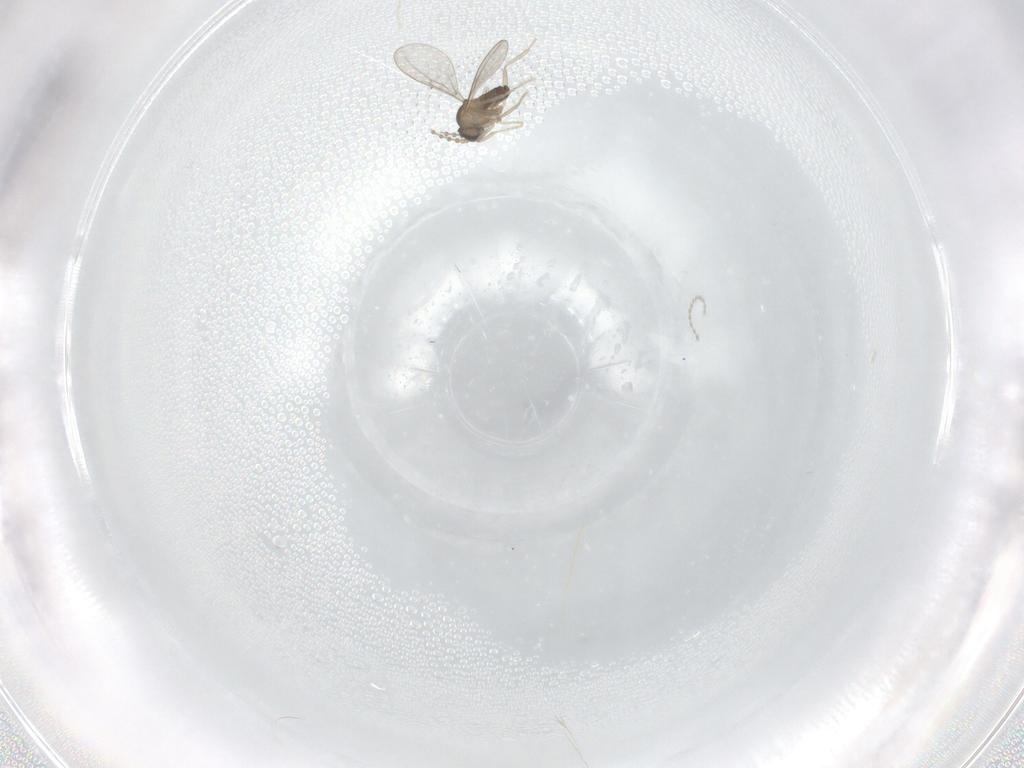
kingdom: Animalia
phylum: Arthropoda
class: Insecta
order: Diptera
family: Cecidomyiidae
